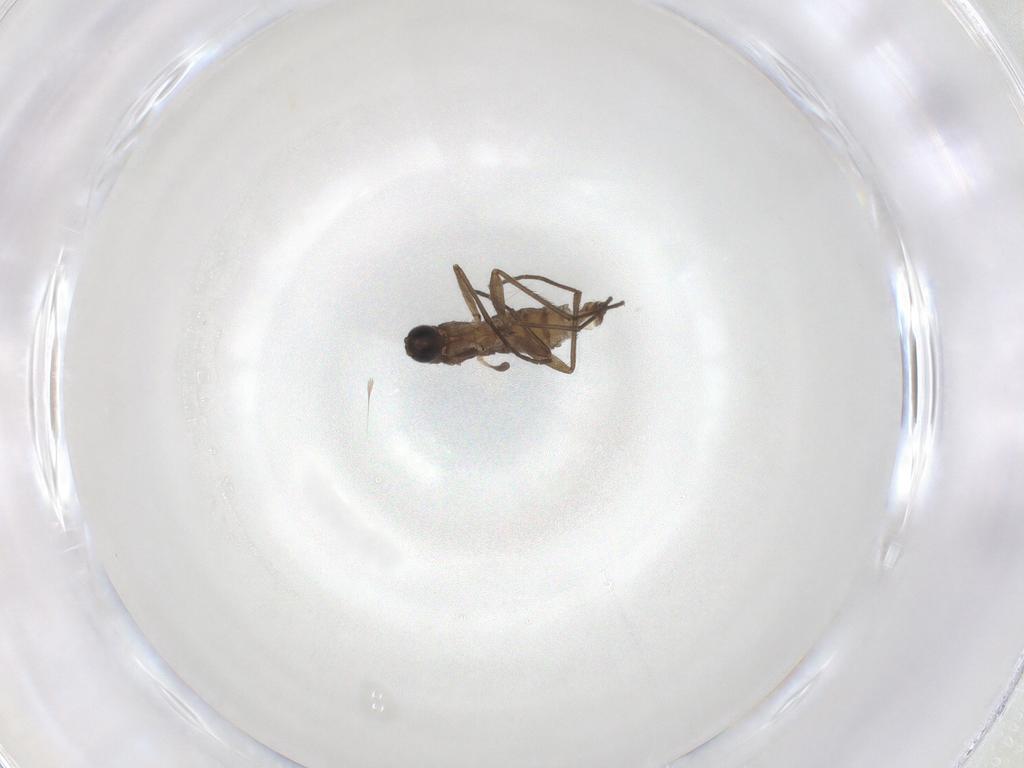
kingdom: Animalia
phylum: Arthropoda
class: Insecta
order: Diptera
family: Sciaridae
